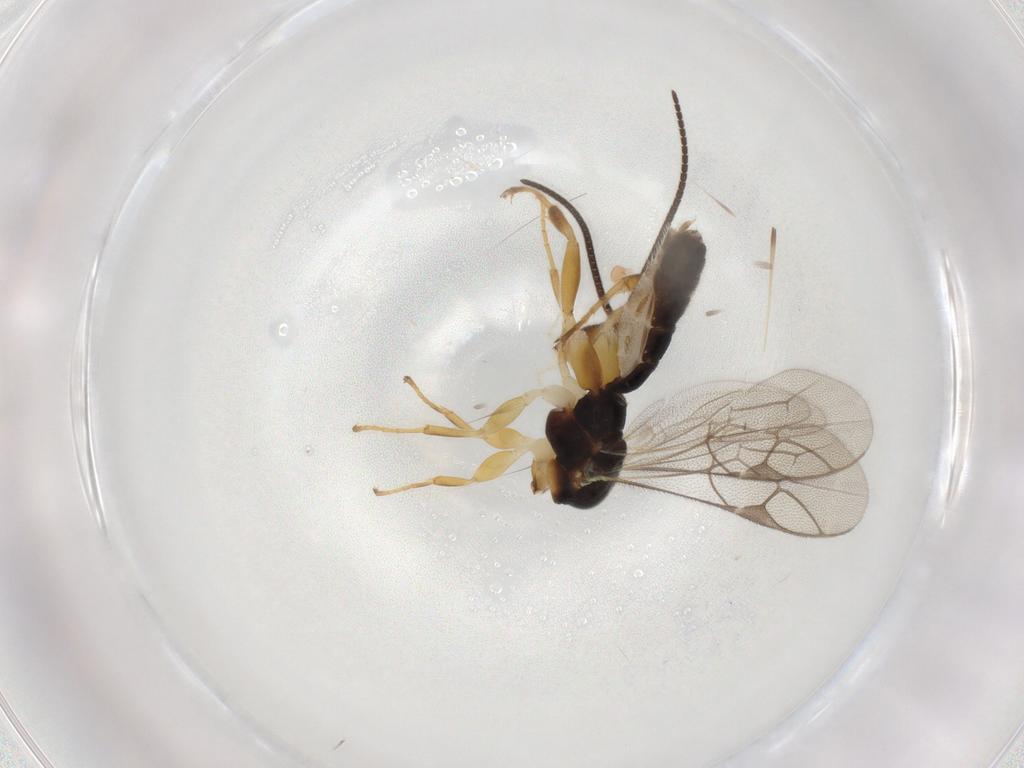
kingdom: Animalia
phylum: Arthropoda
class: Insecta
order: Hymenoptera
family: Ichneumonidae
